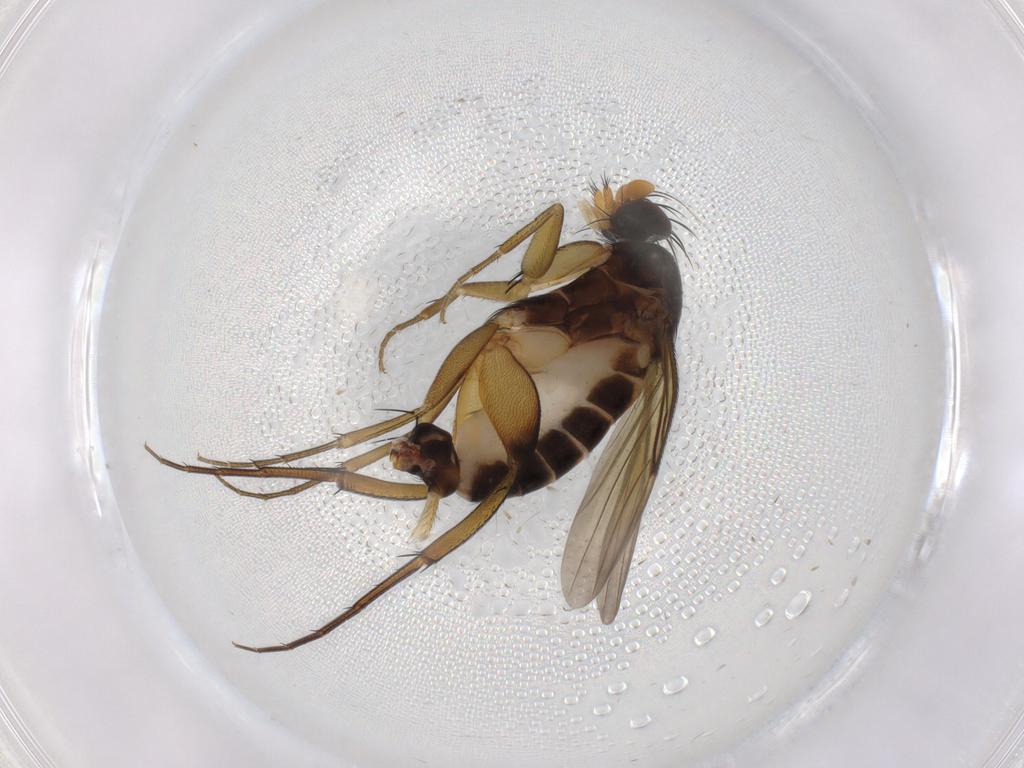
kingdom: Animalia
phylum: Arthropoda
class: Insecta
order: Diptera
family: Phoridae
